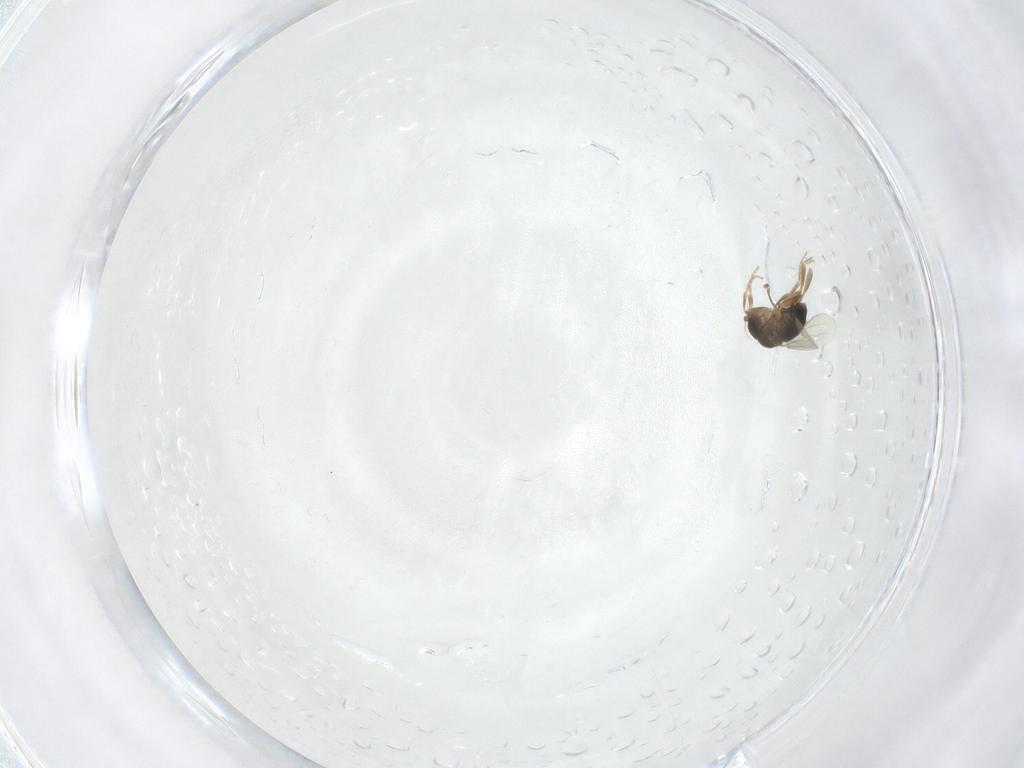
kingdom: Animalia
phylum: Arthropoda
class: Insecta
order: Diptera
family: Phoridae
